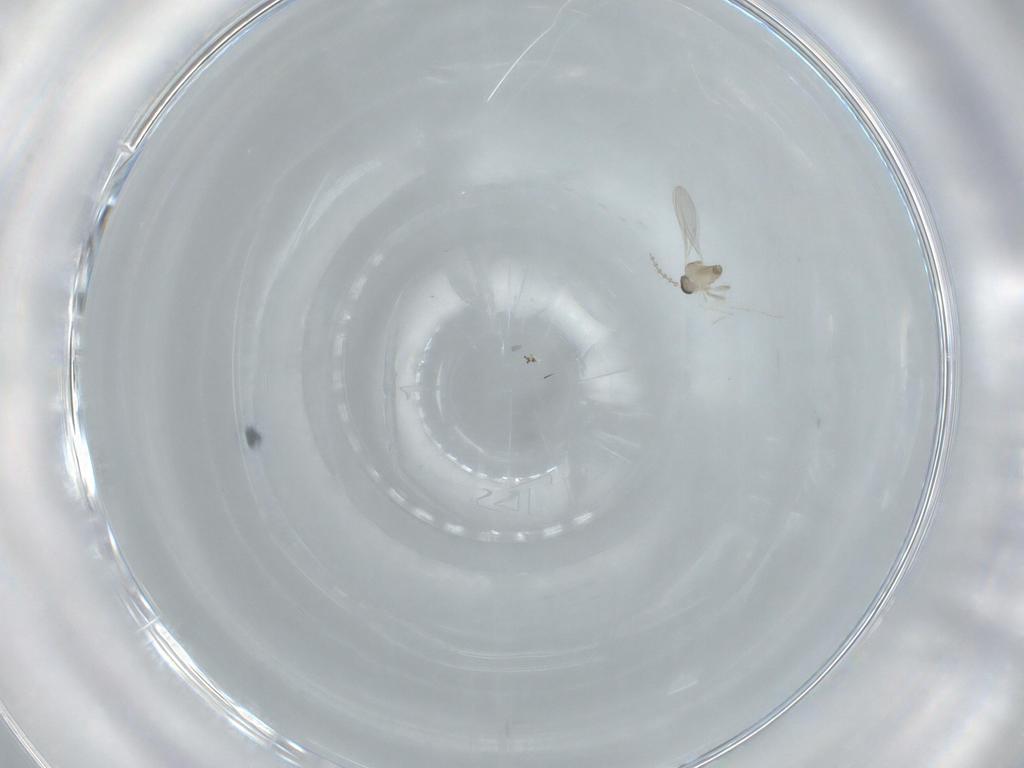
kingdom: Animalia
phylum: Arthropoda
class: Insecta
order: Diptera
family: Milichiidae
